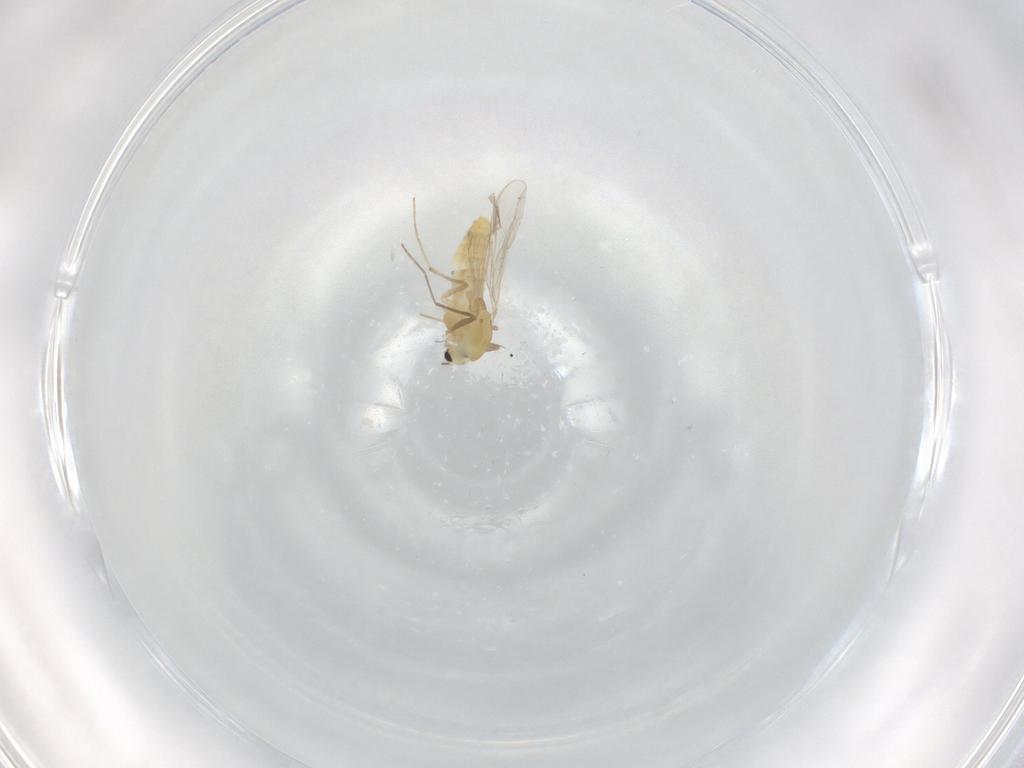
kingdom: Animalia
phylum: Arthropoda
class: Insecta
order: Diptera
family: Chironomidae
